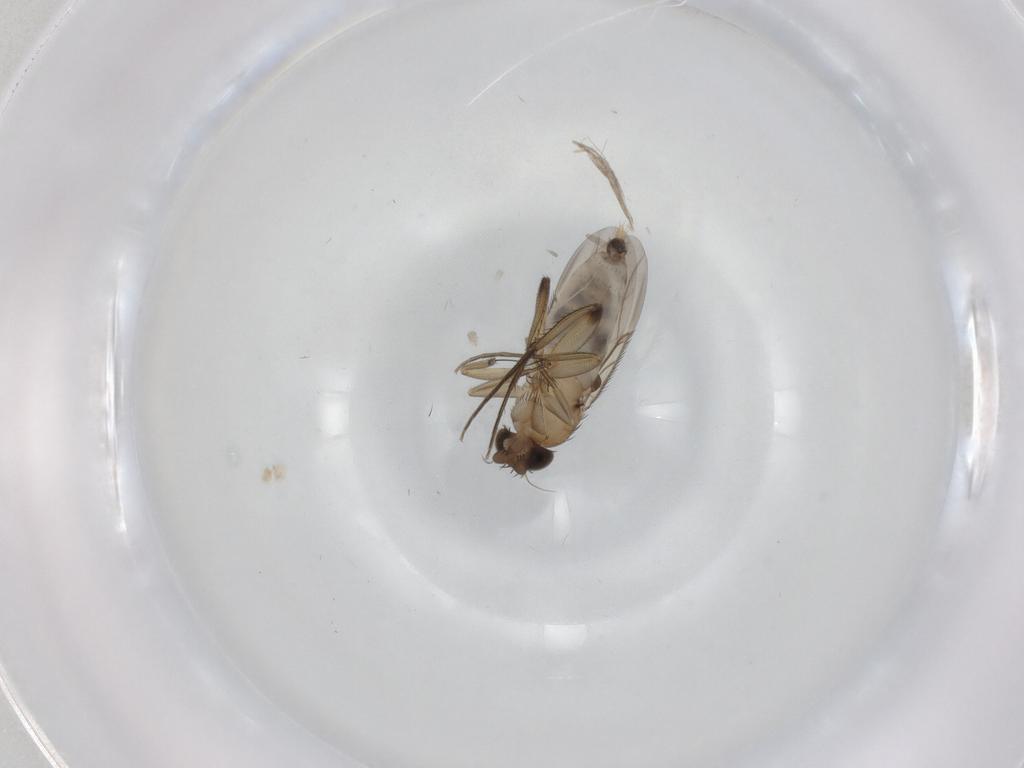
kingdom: Animalia
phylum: Arthropoda
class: Insecta
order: Diptera
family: Phoridae
